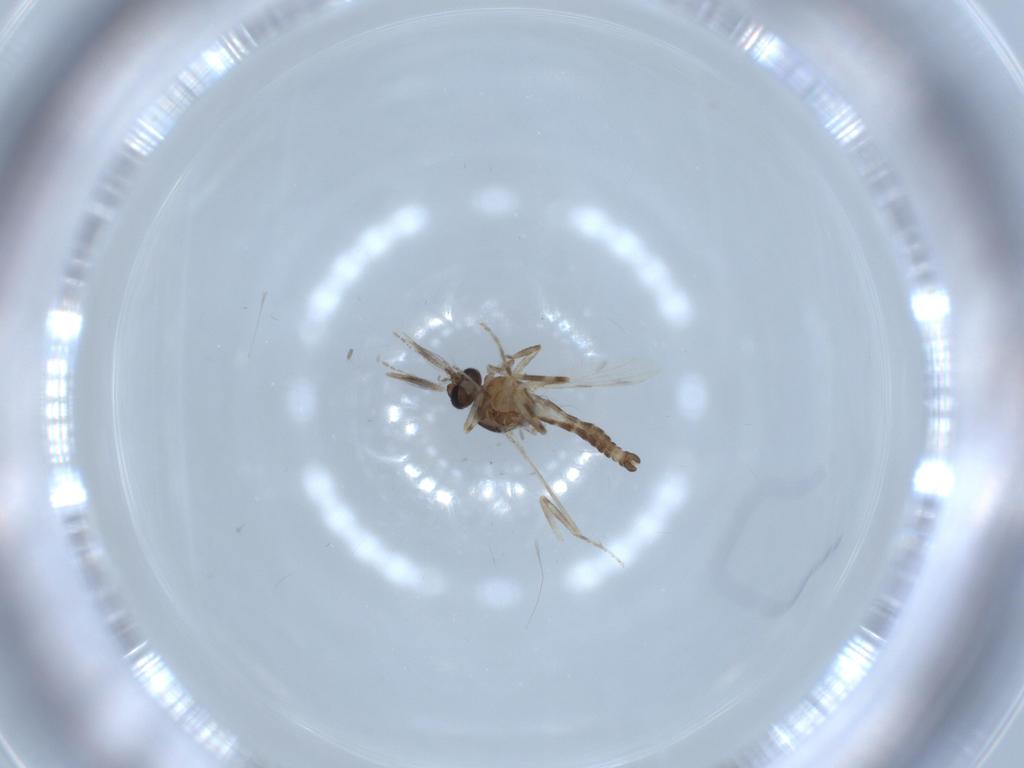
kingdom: Animalia
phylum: Arthropoda
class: Insecta
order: Diptera
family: Ceratopogonidae
